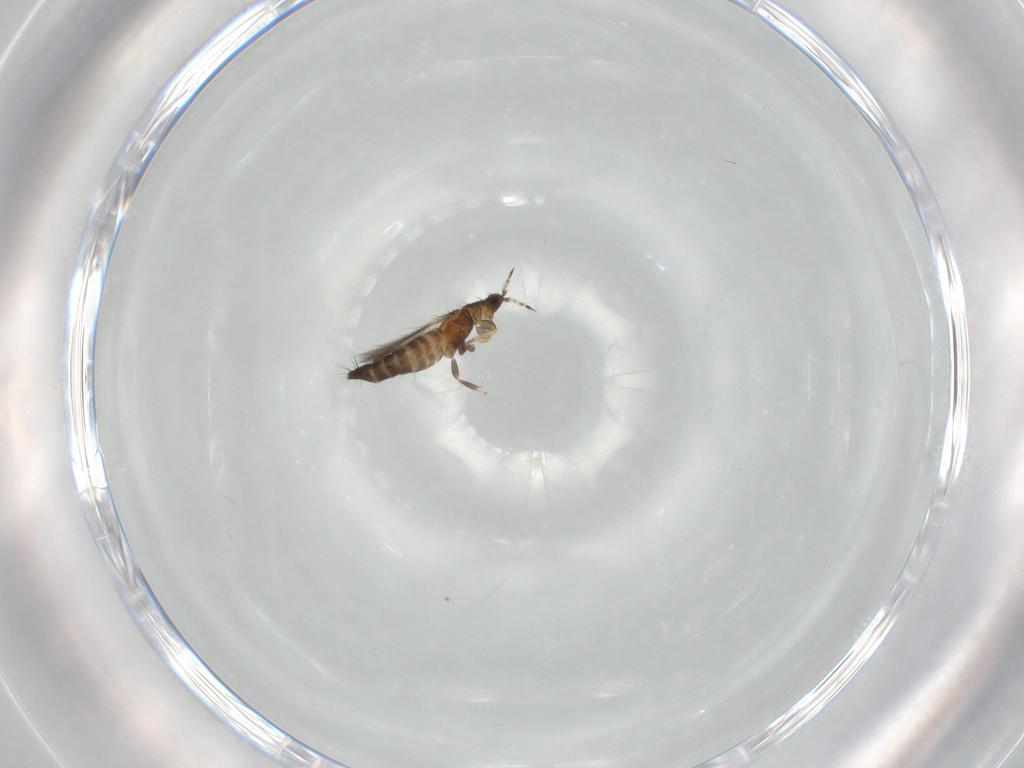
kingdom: Animalia
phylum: Arthropoda
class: Insecta
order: Thysanoptera
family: Thripidae
